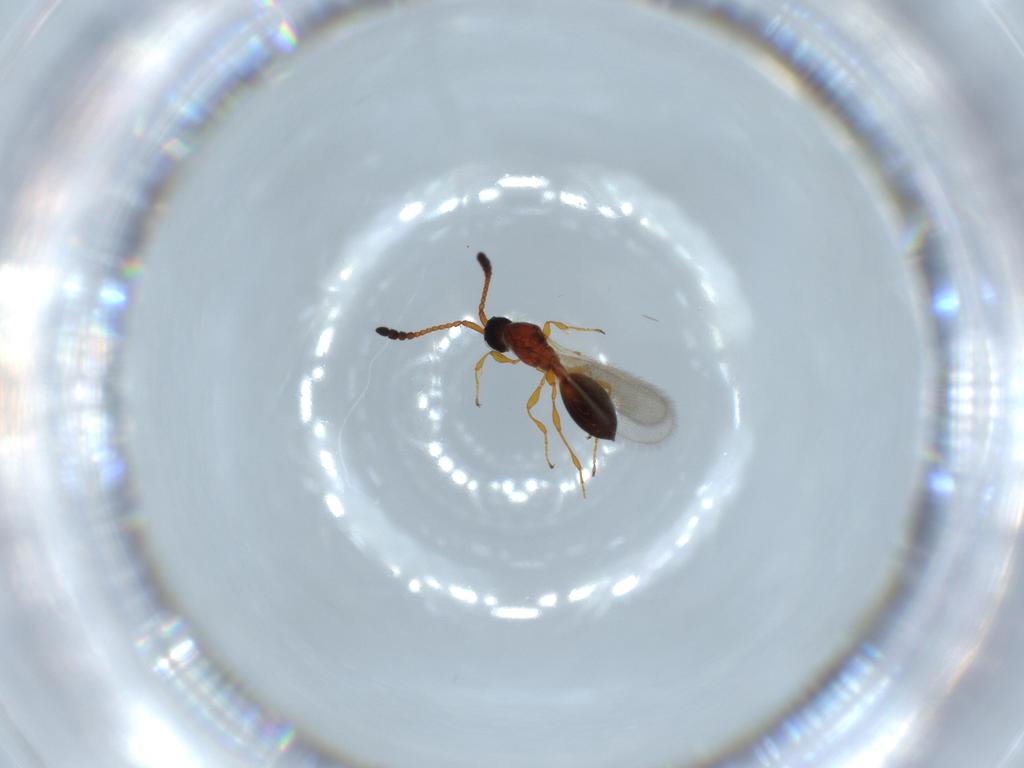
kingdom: Animalia
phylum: Arthropoda
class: Insecta
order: Hymenoptera
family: Diapriidae
